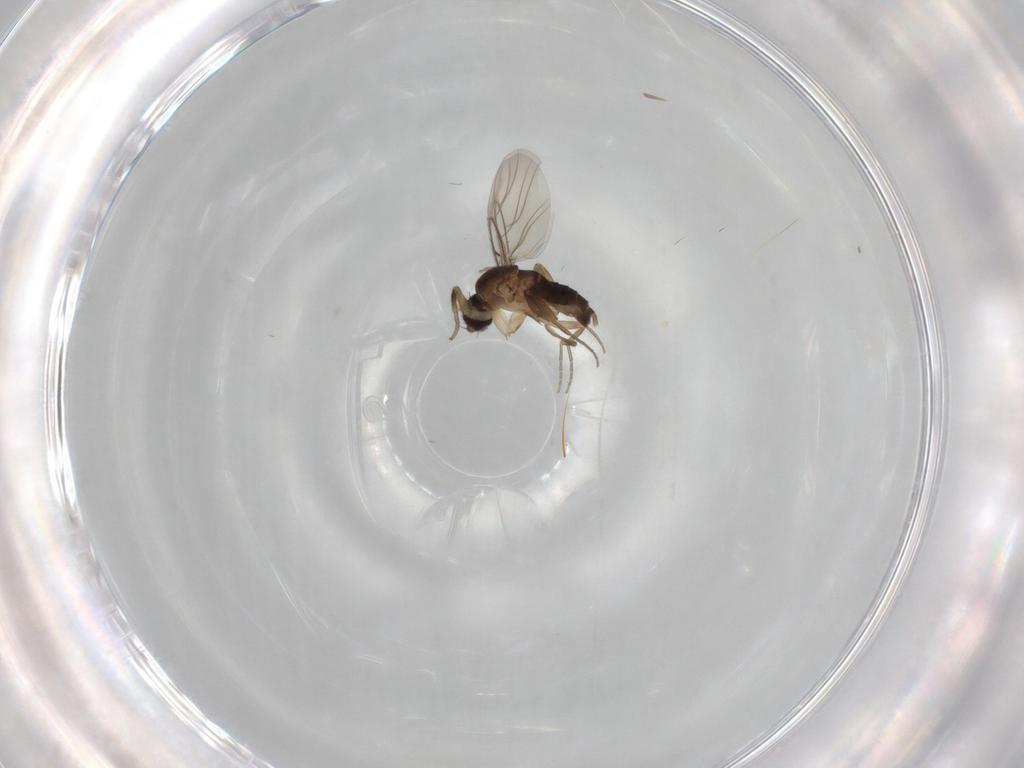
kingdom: Animalia
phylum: Arthropoda
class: Insecta
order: Diptera
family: Phoridae
